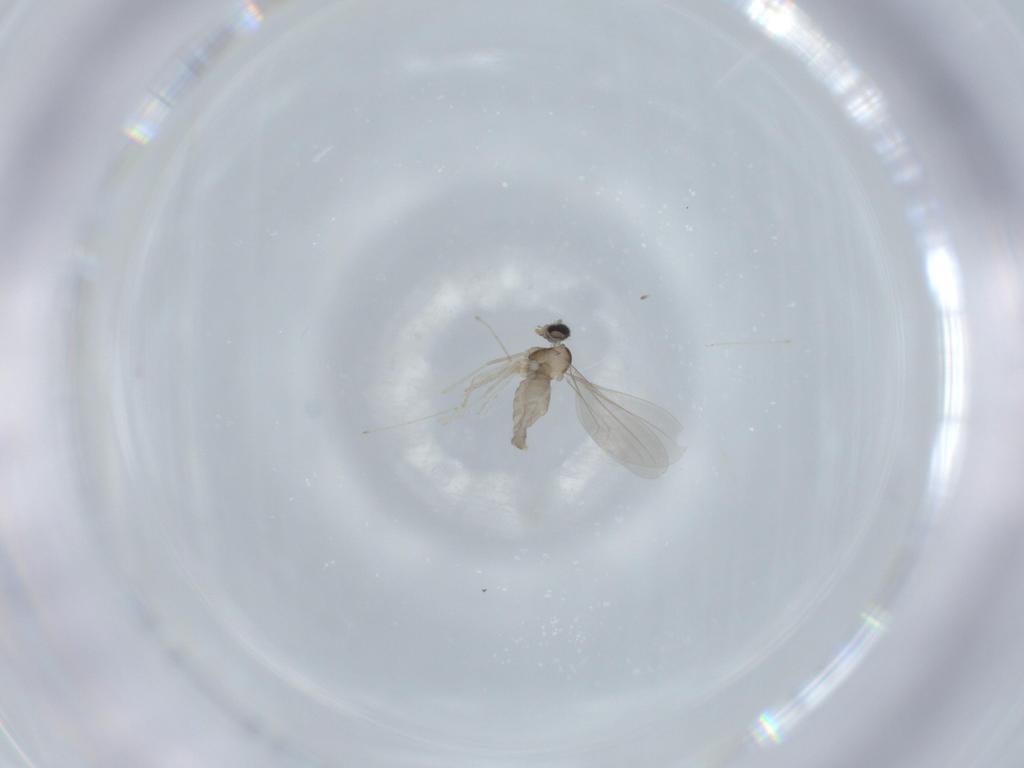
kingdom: Animalia
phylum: Arthropoda
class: Insecta
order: Diptera
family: Cecidomyiidae
